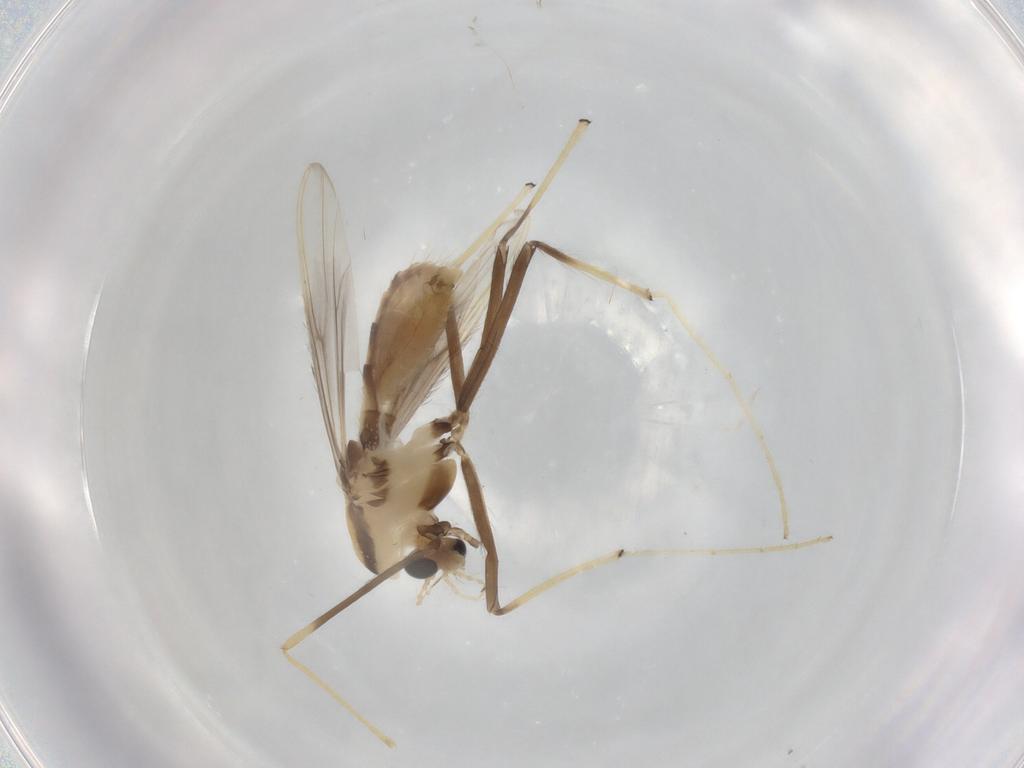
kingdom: Animalia
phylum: Arthropoda
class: Insecta
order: Diptera
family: Chironomidae
